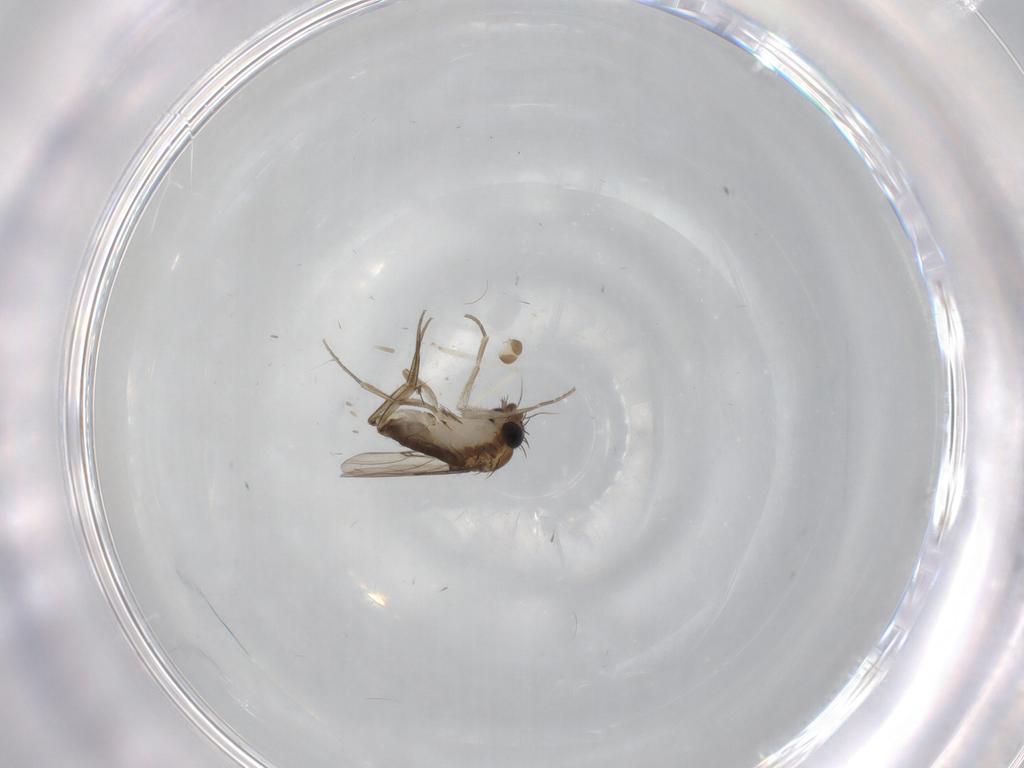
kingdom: Animalia
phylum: Arthropoda
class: Insecta
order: Diptera
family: Phoridae
